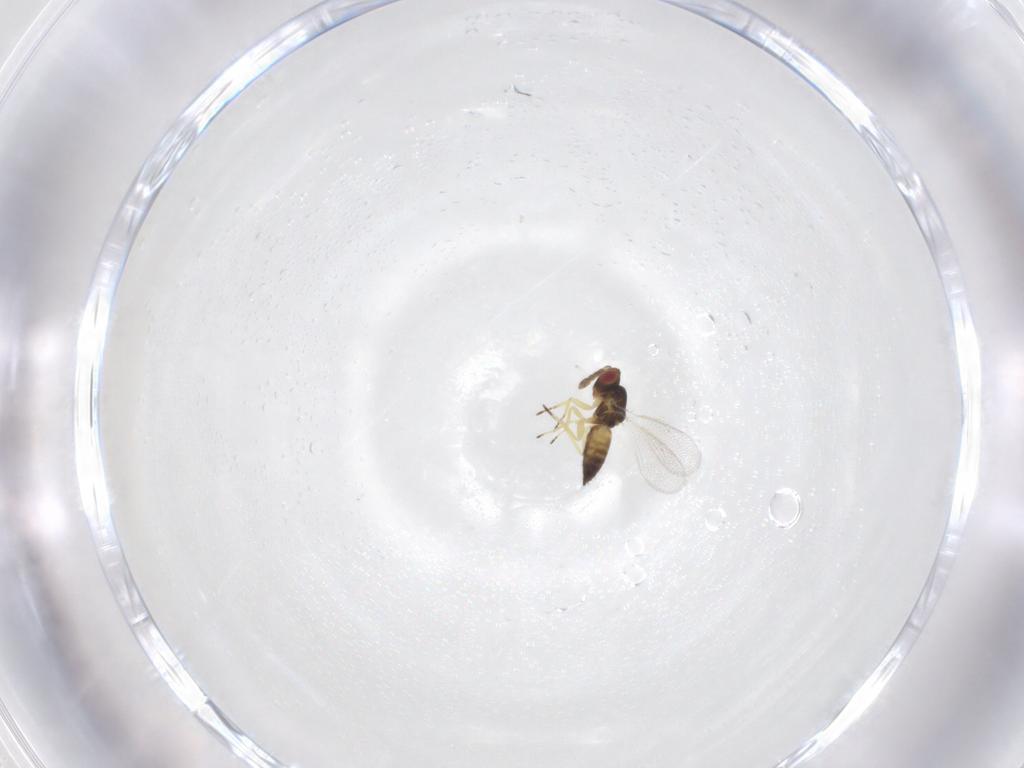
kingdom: Animalia
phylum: Arthropoda
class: Insecta
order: Hymenoptera
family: Eulophidae
